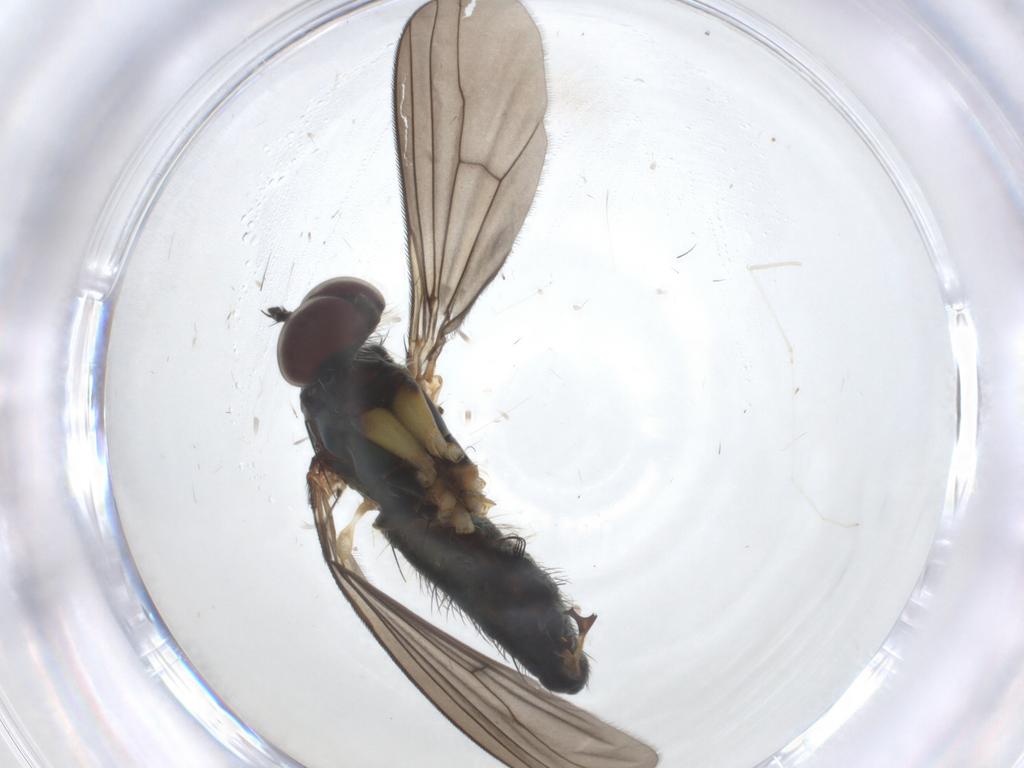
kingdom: Animalia
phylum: Arthropoda
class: Insecta
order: Diptera
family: Dolichopodidae
